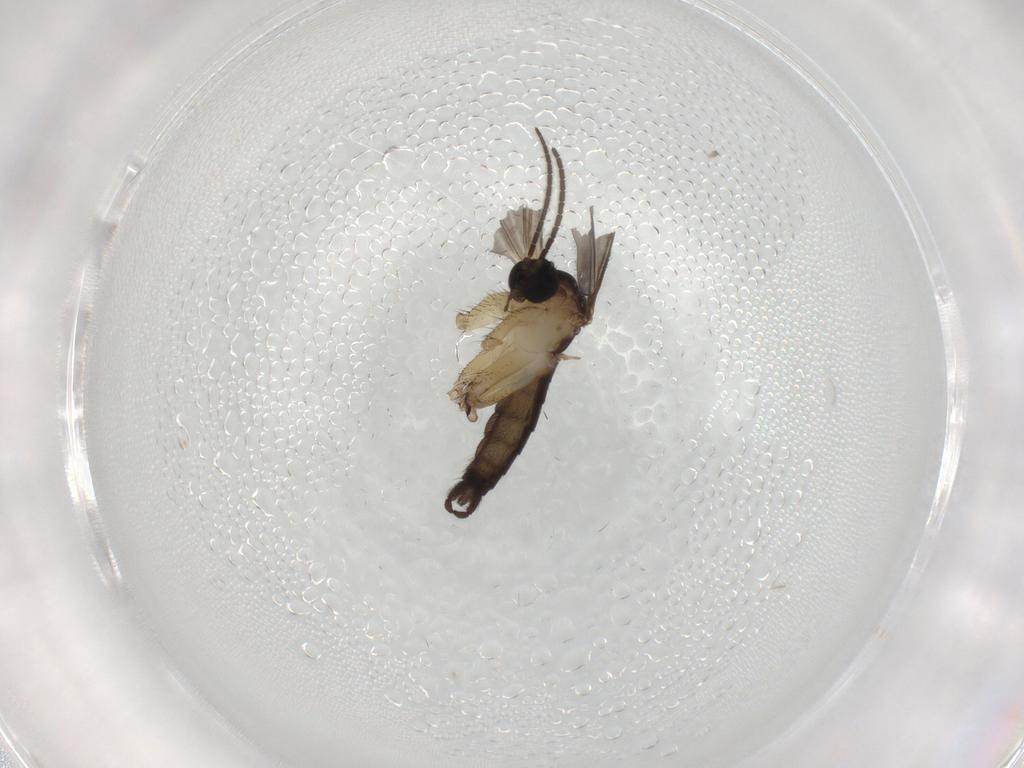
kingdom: Animalia
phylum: Arthropoda
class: Insecta
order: Diptera
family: Sciaridae
